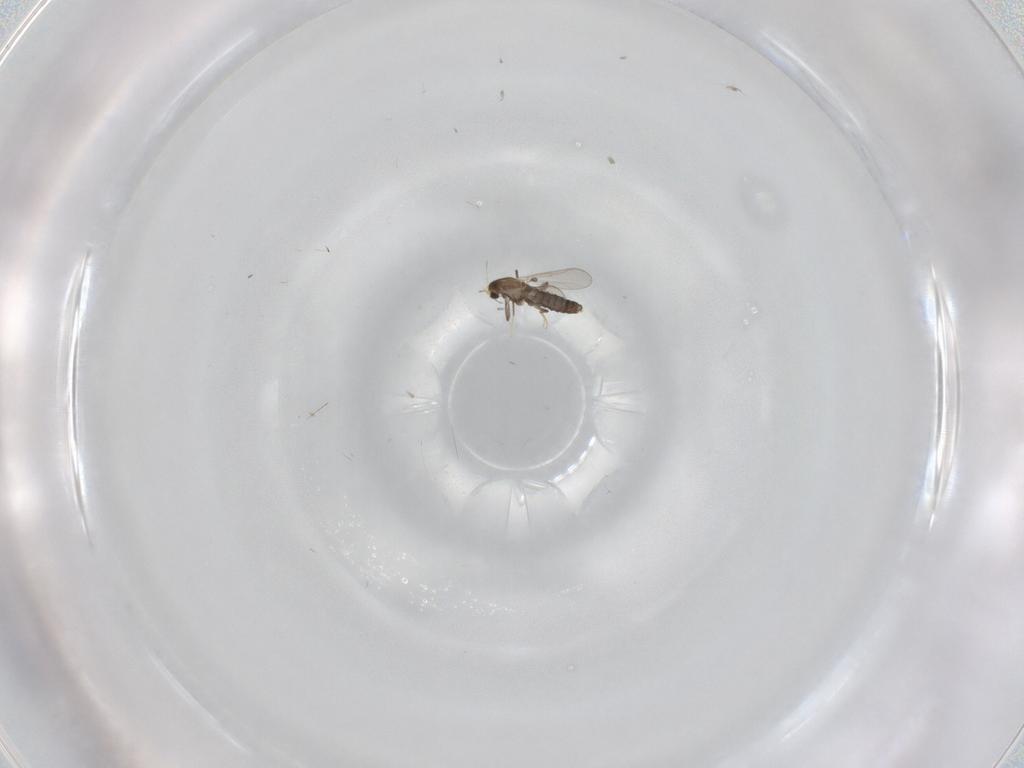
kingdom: Animalia
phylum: Arthropoda
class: Insecta
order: Diptera
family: Chironomidae
